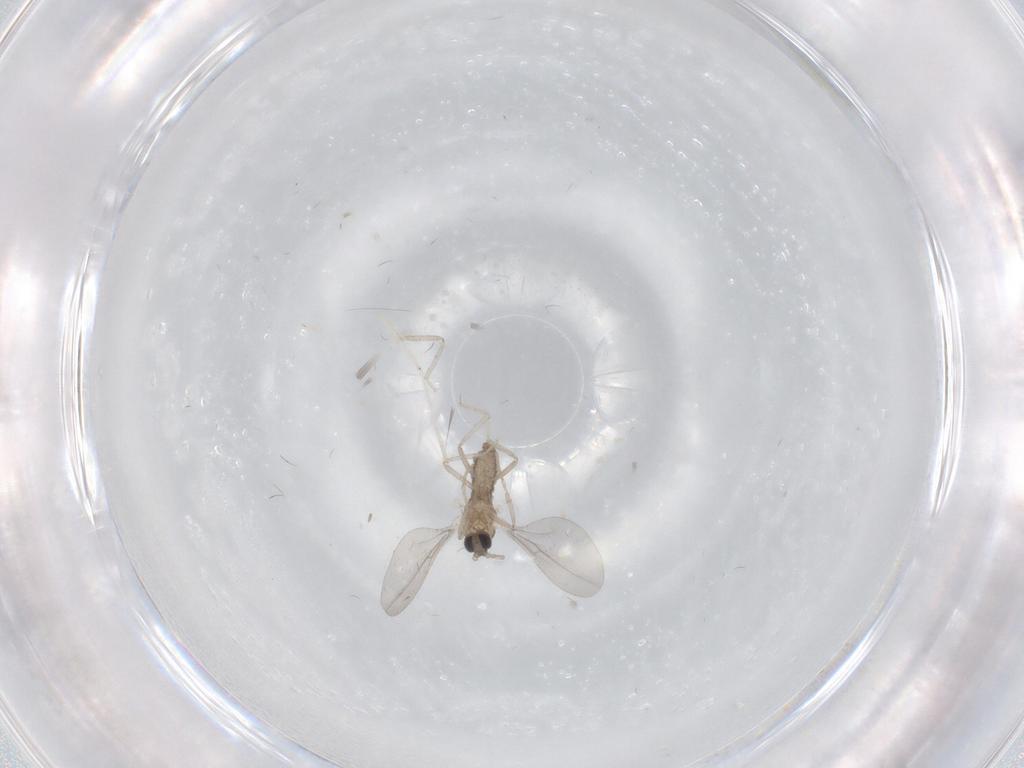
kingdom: Animalia
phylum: Arthropoda
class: Insecta
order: Diptera
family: Cecidomyiidae
